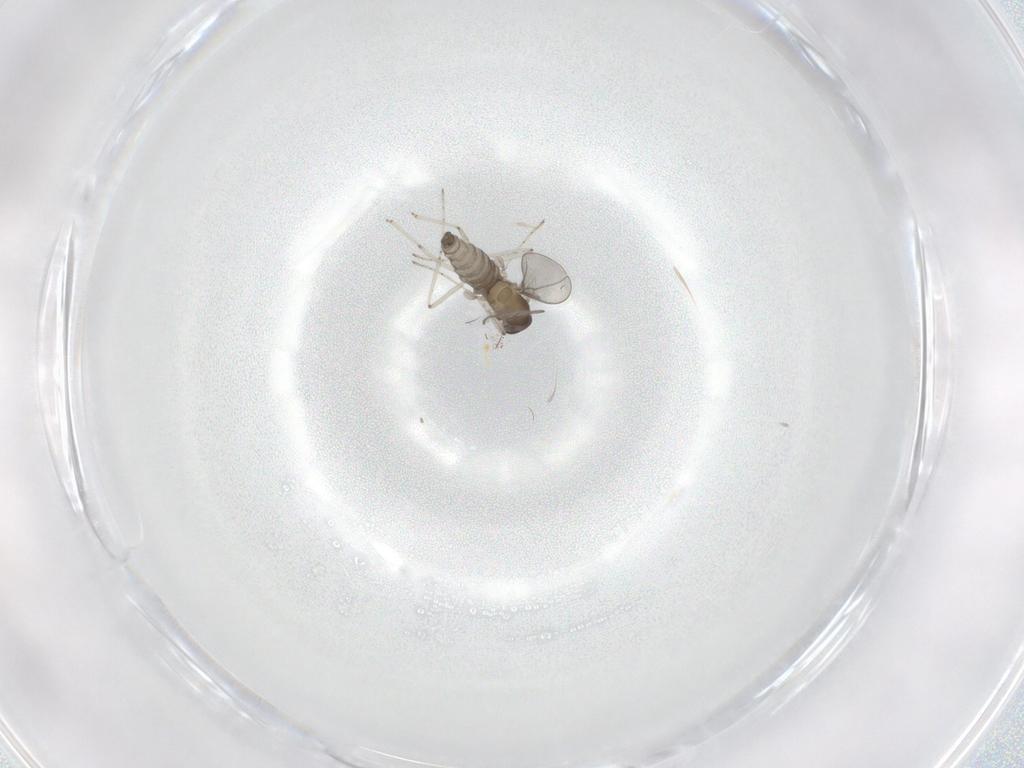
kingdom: Animalia
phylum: Arthropoda
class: Insecta
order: Diptera
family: Cecidomyiidae
